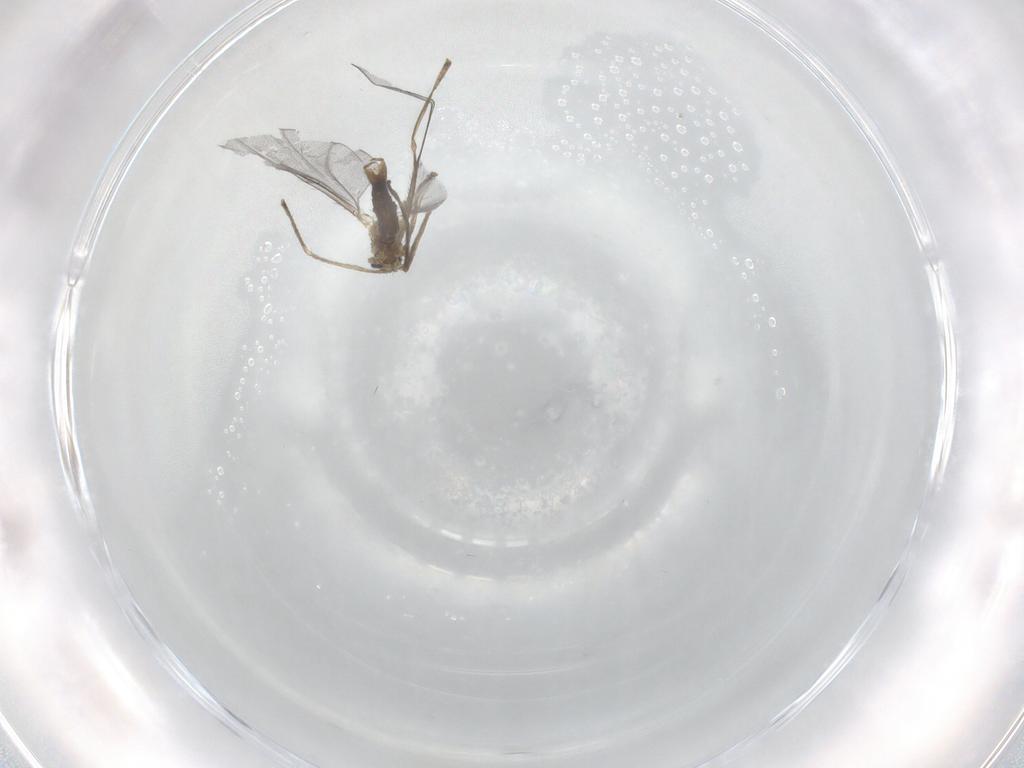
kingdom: Animalia
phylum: Arthropoda
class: Insecta
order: Diptera
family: Cecidomyiidae
